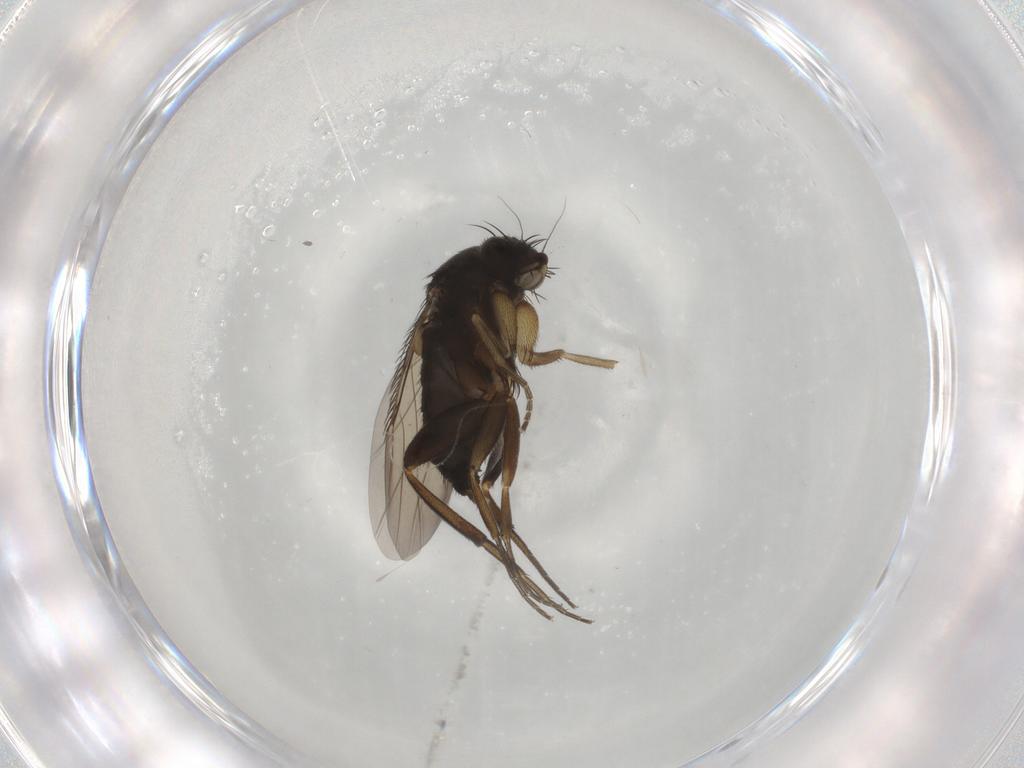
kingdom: Animalia
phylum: Arthropoda
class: Insecta
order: Diptera
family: Phoridae
